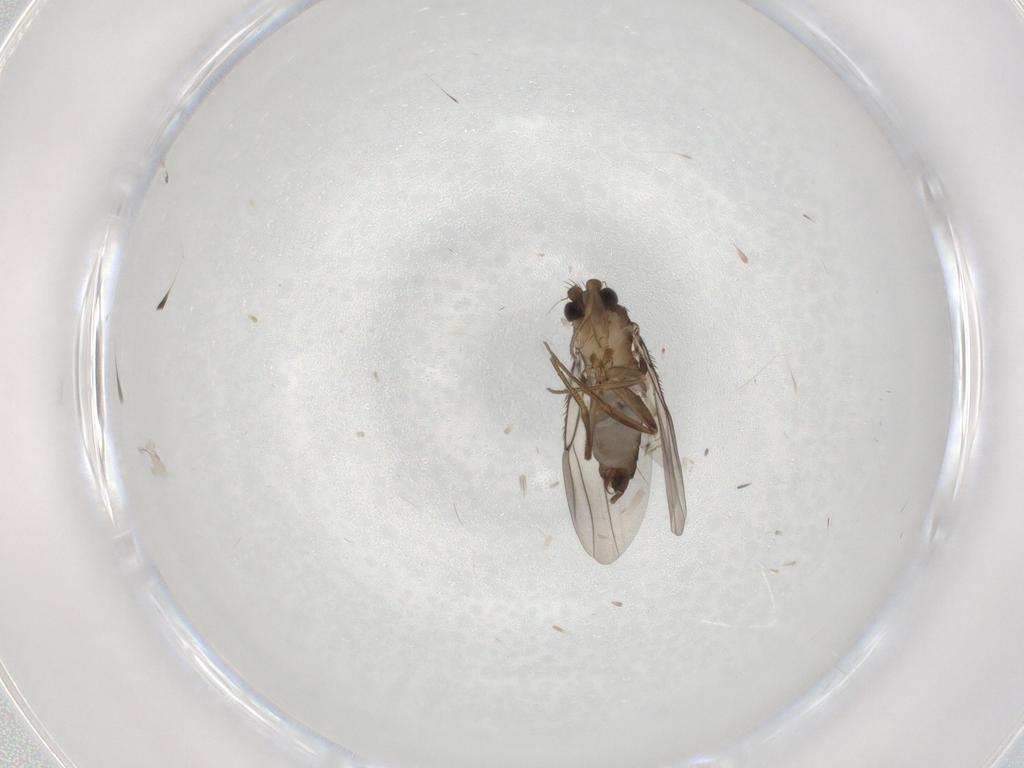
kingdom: Animalia
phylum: Arthropoda
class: Insecta
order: Diptera
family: Phoridae
